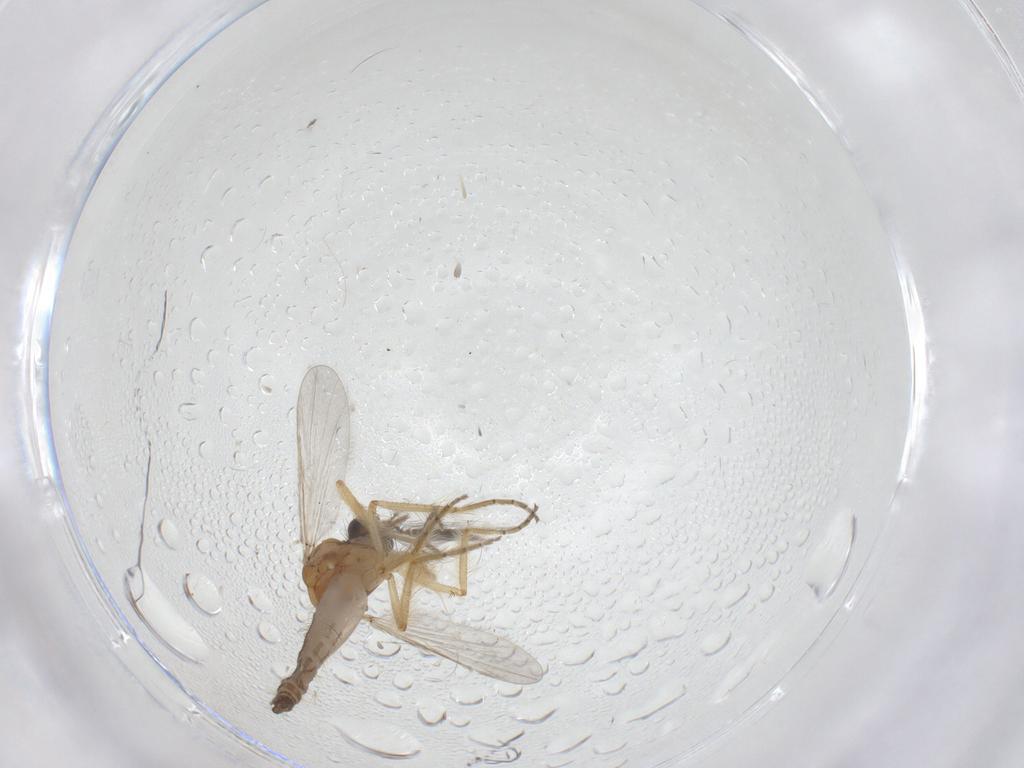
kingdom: Animalia
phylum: Arthropoda
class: Insecta
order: Diptera
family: Ceratopogonidae
